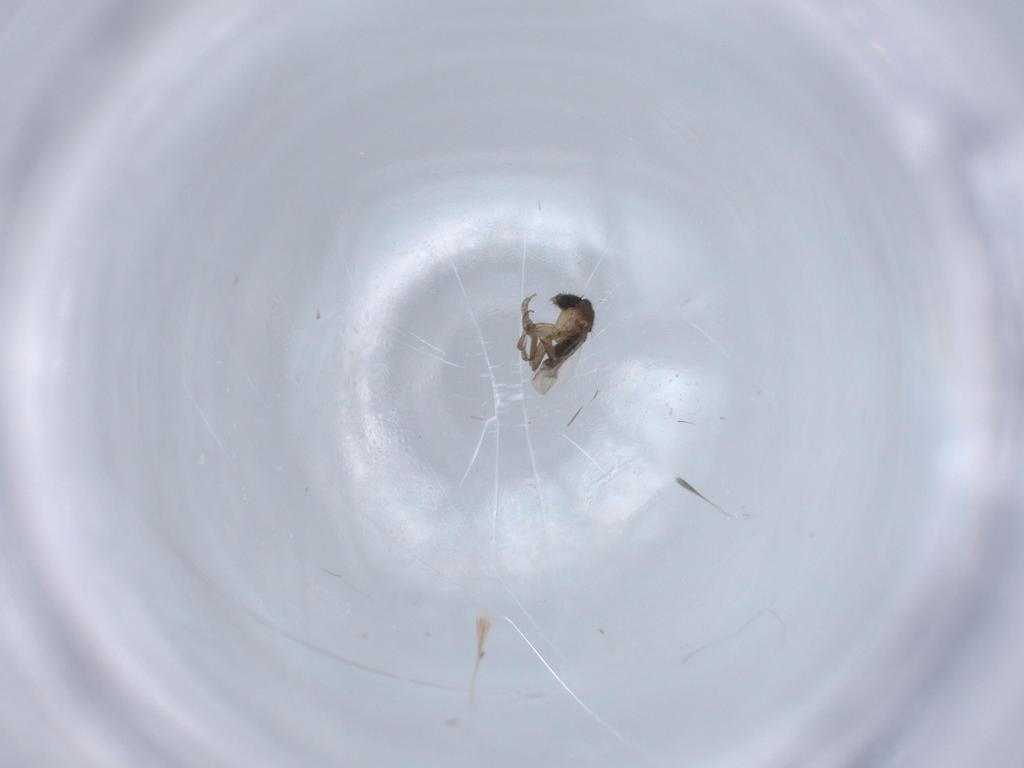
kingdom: Animalia
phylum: Arthropoda
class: Insecta
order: Diptera
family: Phoridae
